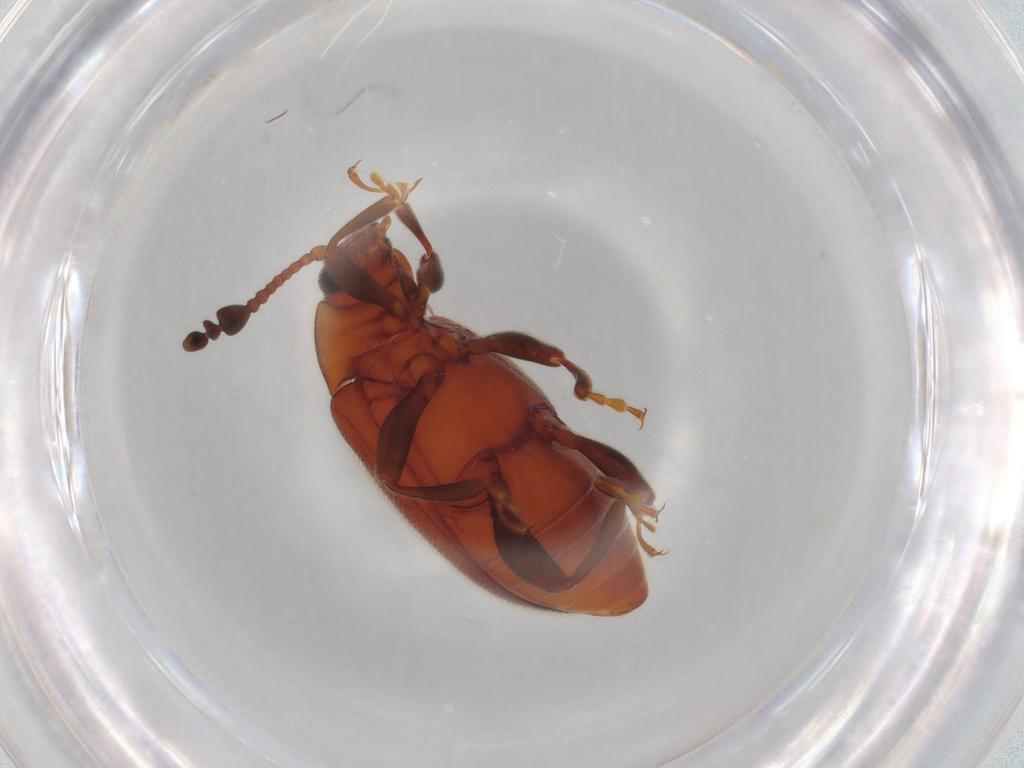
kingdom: Animalia
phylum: Arthropoda
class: Insecta
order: Coleoptera
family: Endomychidae
